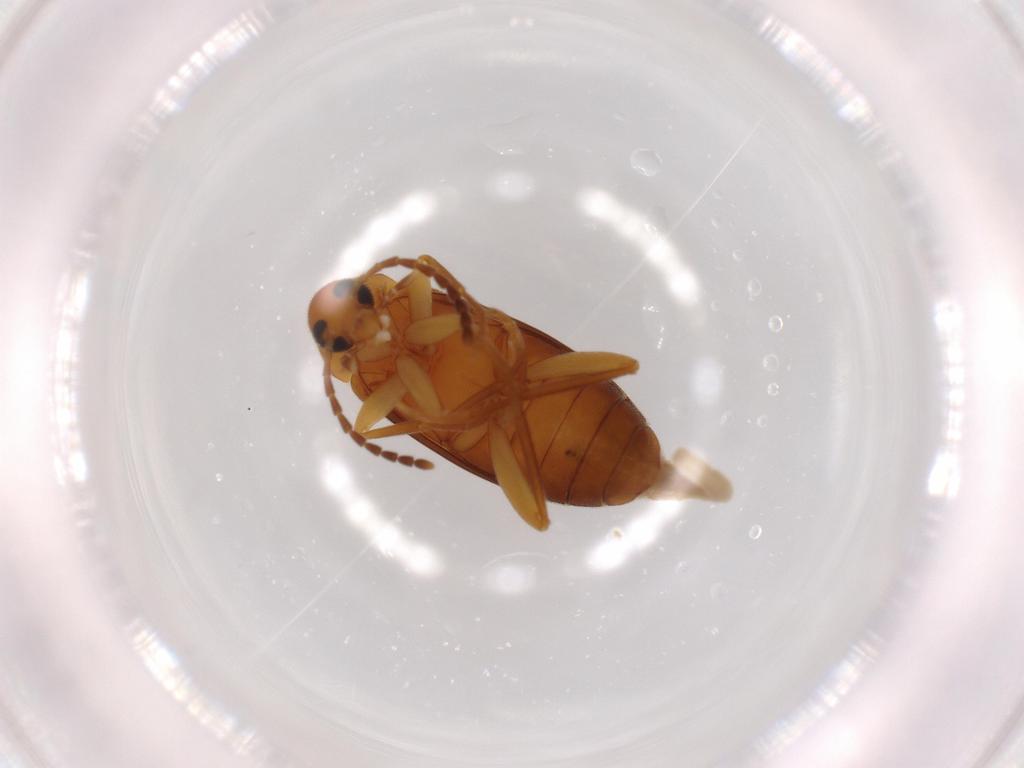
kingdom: Animalia
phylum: Arthropoda
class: Insecta
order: Coleoptera
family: Scraptiidae
